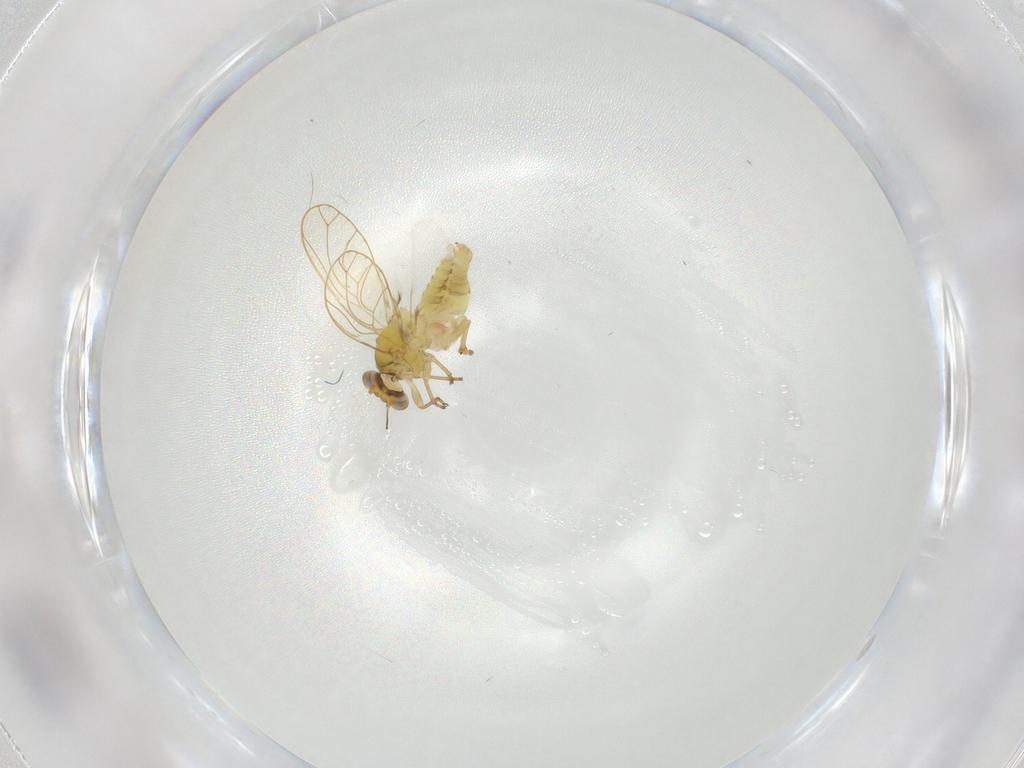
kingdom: Animalia
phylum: Arthropoda
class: Insecta
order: Hemiptera
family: Psylloidea_incertae_sedis
